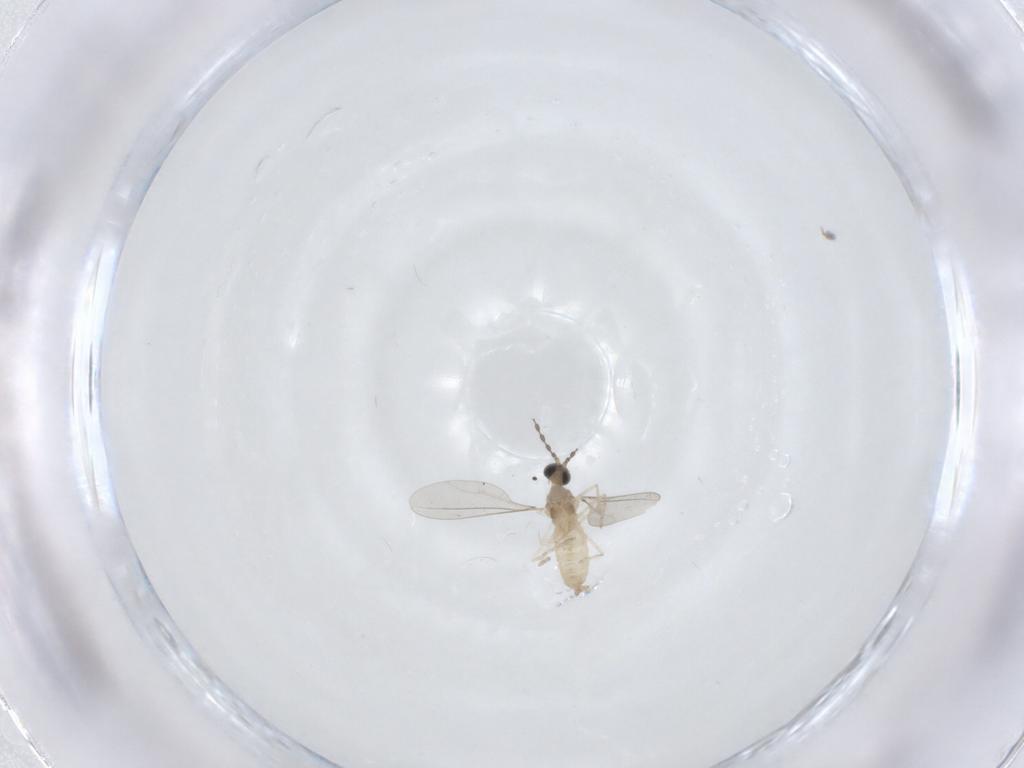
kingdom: Animalia
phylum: Arthropoda
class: Insecta
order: Diptera
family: Cecidomyiidae
